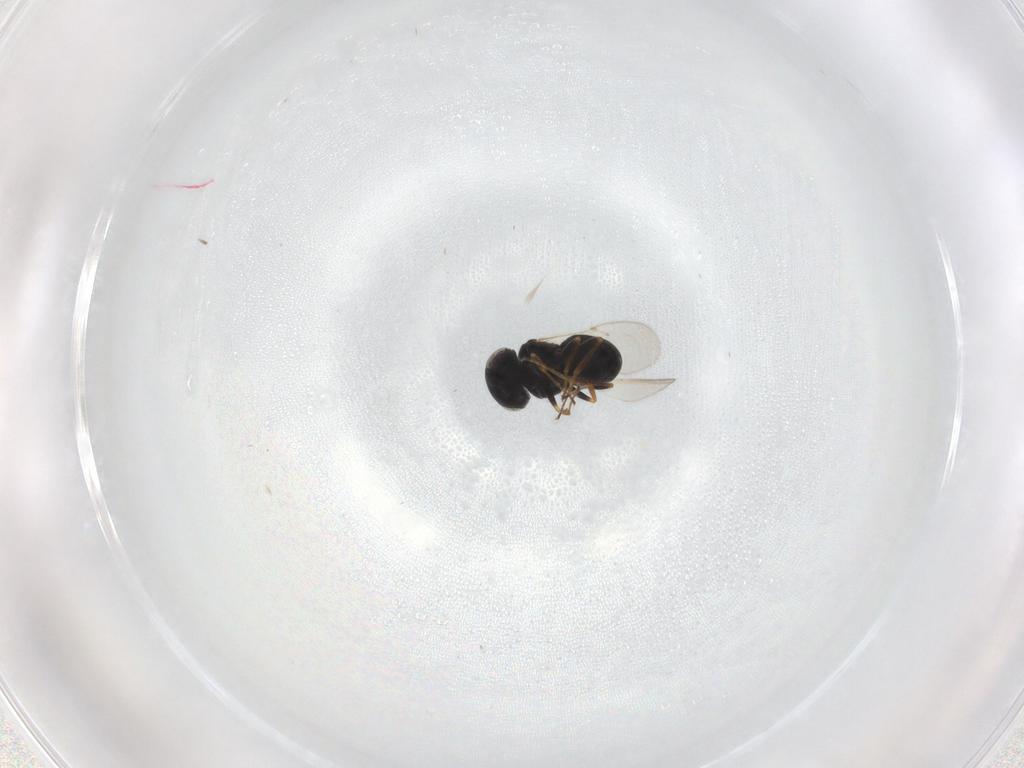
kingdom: Animalia
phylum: Arthropoda
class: Insecta
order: Coleoptera
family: Curculionidae
